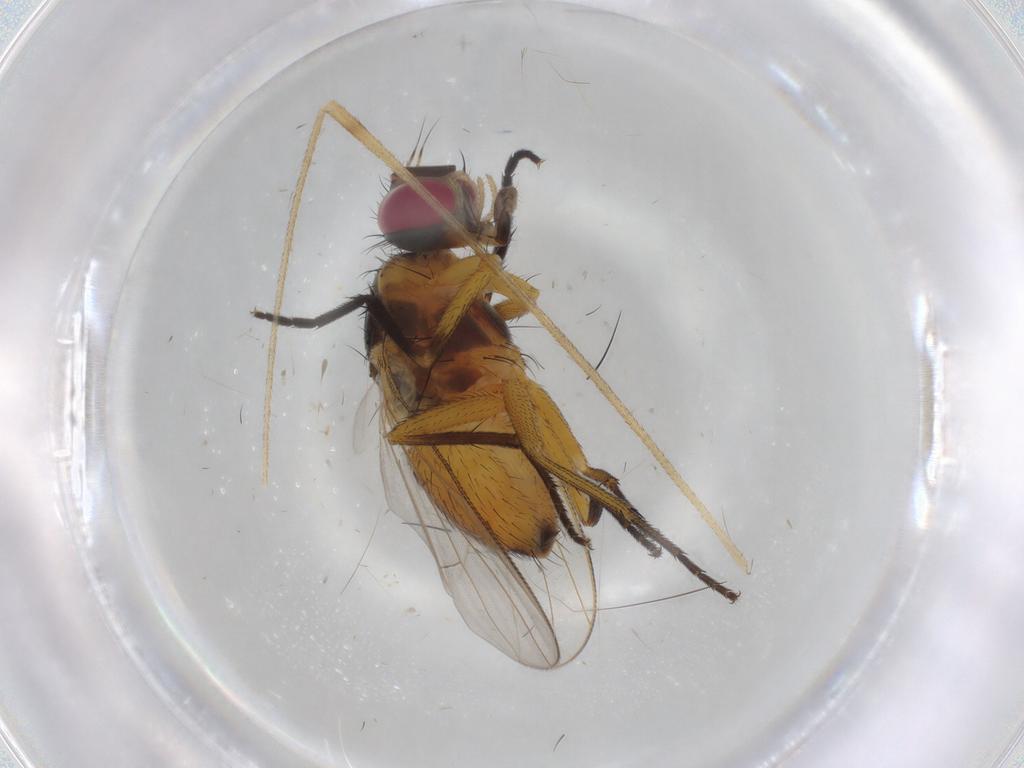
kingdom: Animalia
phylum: Arthropoda
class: Insecta
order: Diptera
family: Muscidae
